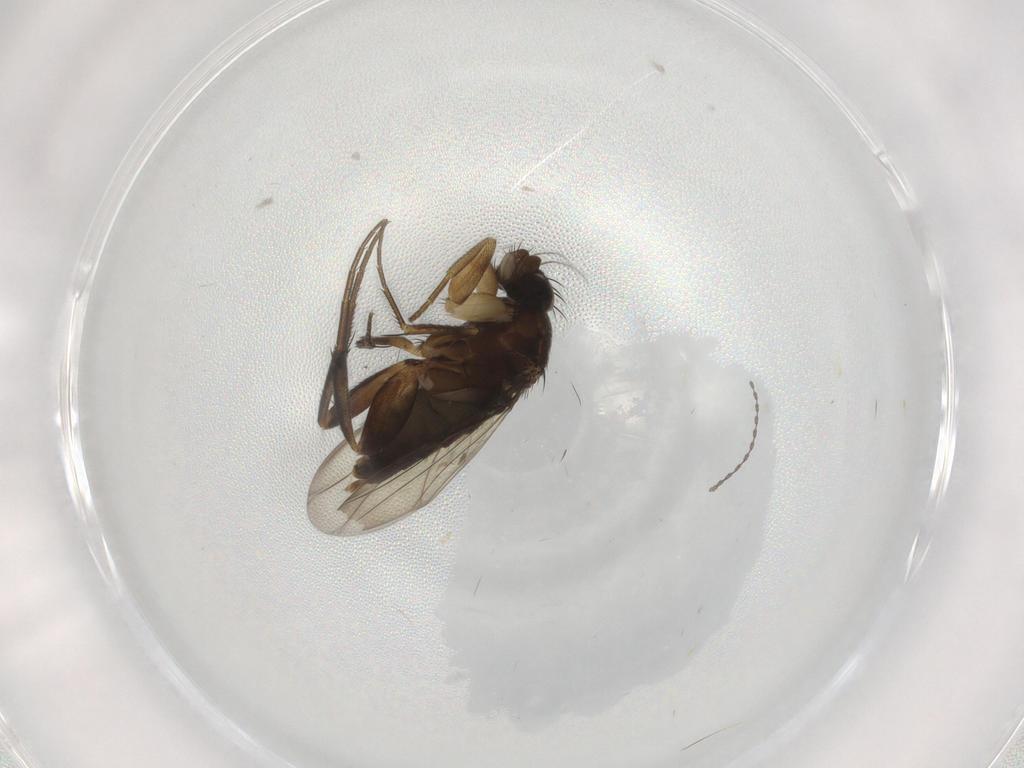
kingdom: Animalia
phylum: Arthropoda
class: Insecta
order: Diptera
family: Phoridae
